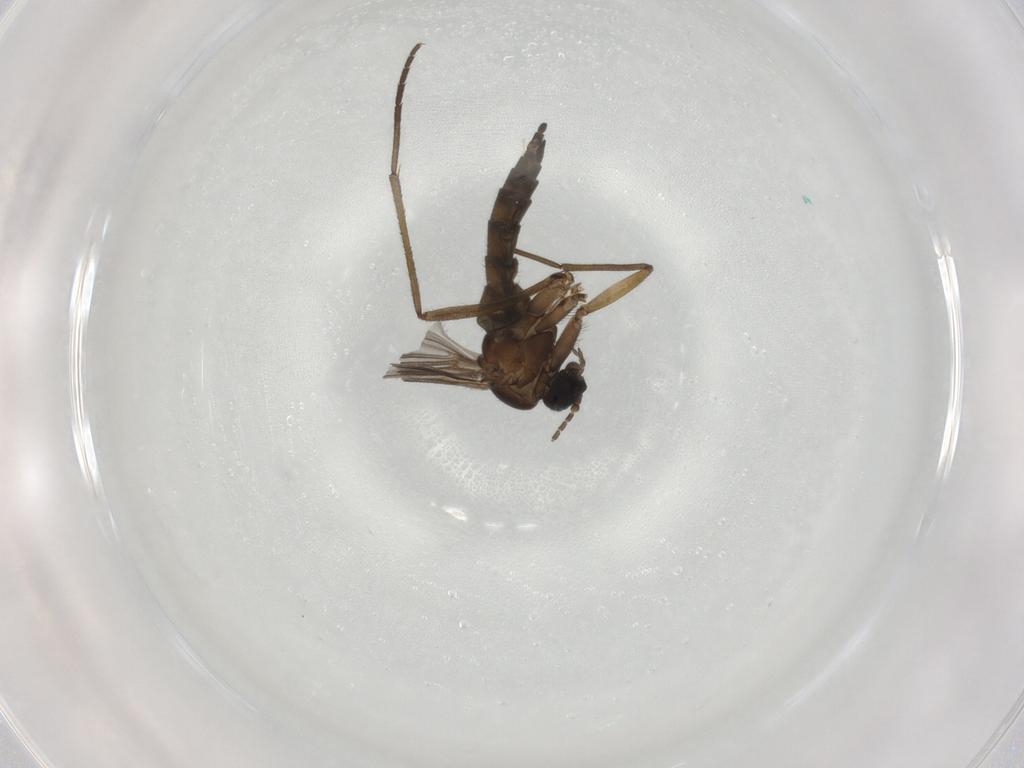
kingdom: Animalia
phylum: Arthropoda
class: Insecta
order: Diptera
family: Sciaridae
